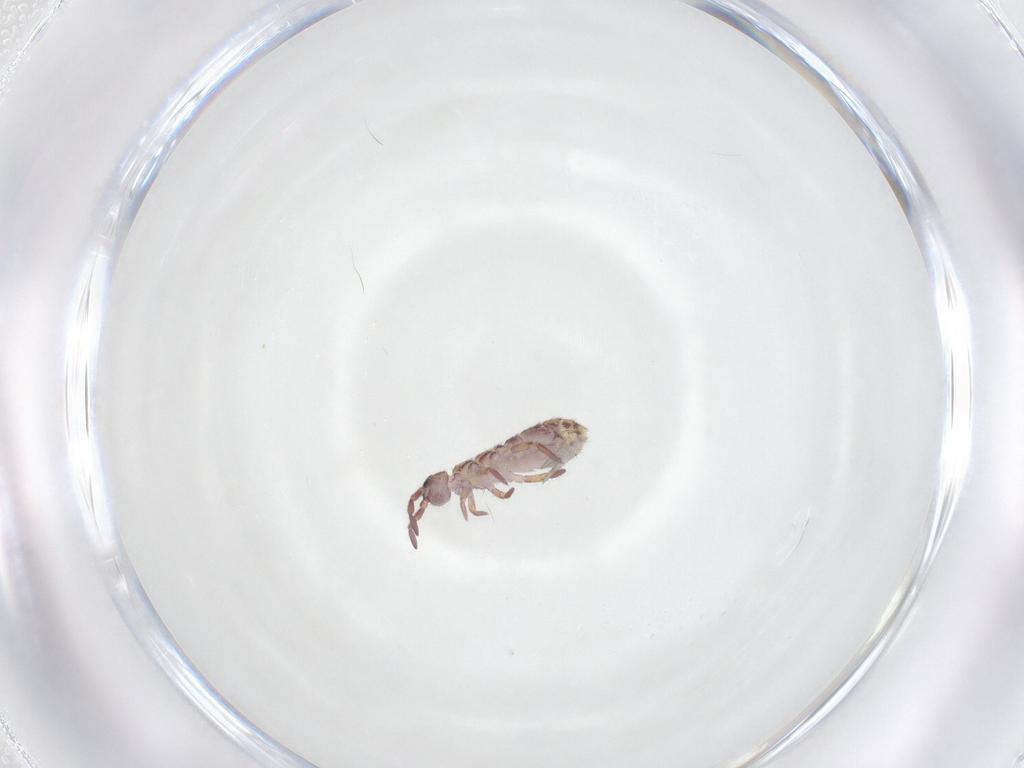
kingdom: Animalia
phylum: Arthropoda
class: Collembola
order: Entomobryomorpha
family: Isotomidae
